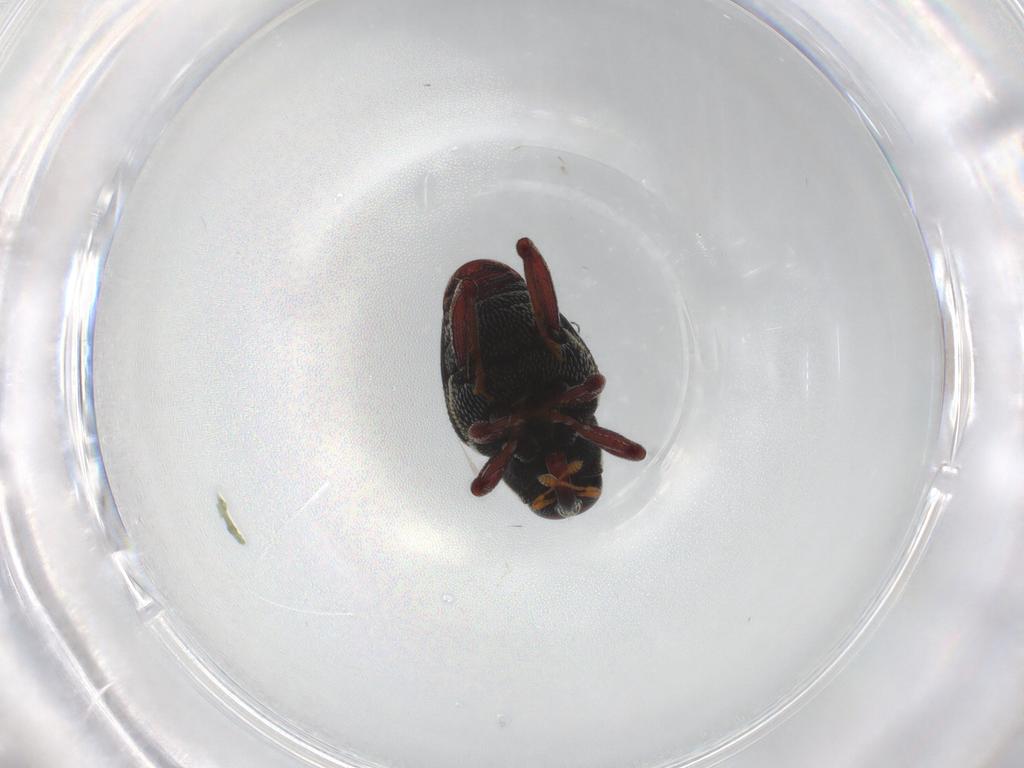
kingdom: Animalia
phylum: Arthropoda
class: Insecta
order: Coleoptera
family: Curculionidae
